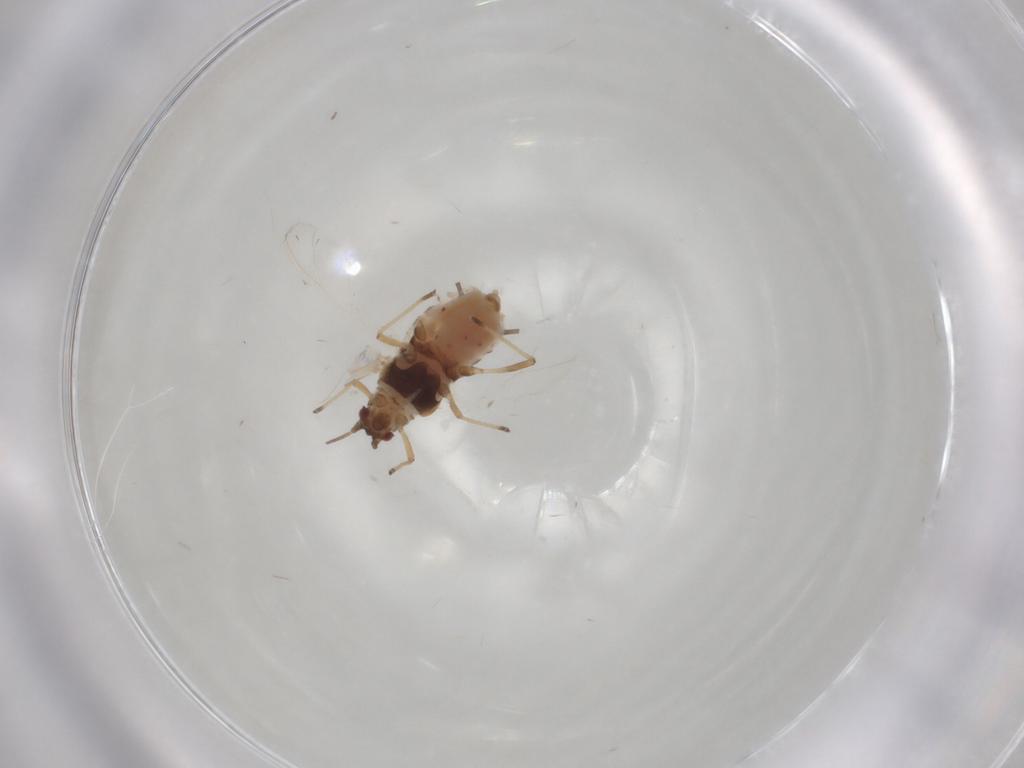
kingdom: Animalia
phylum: Arthropoda
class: Insecta
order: Hemiptera
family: Aphididae
